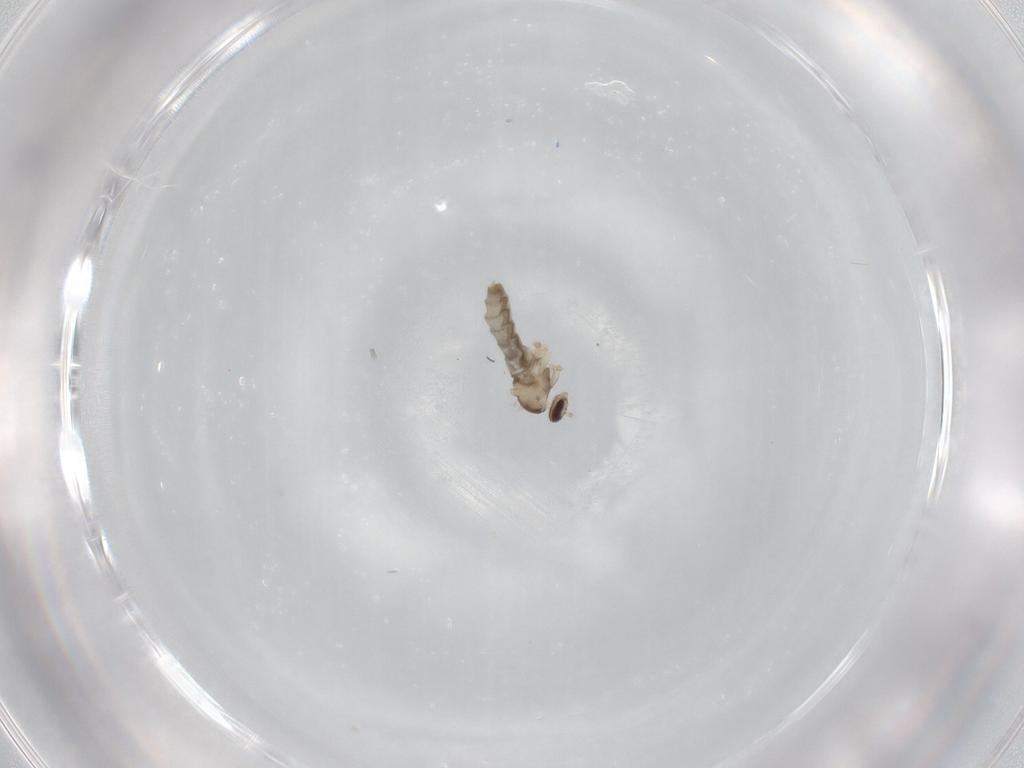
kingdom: Animalia
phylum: Arthropoda
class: Insecta
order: Diptera
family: Cecidomyiidae
